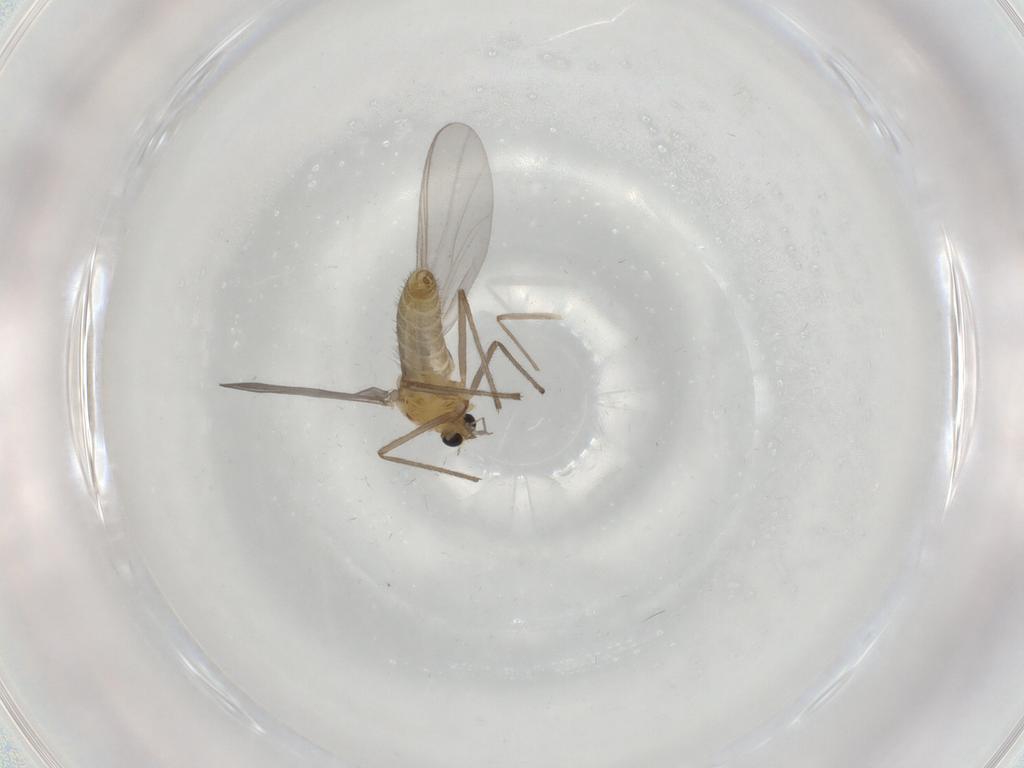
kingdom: Animalia
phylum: Arthropoda
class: Insecta
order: Diptera
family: Chironomidae
